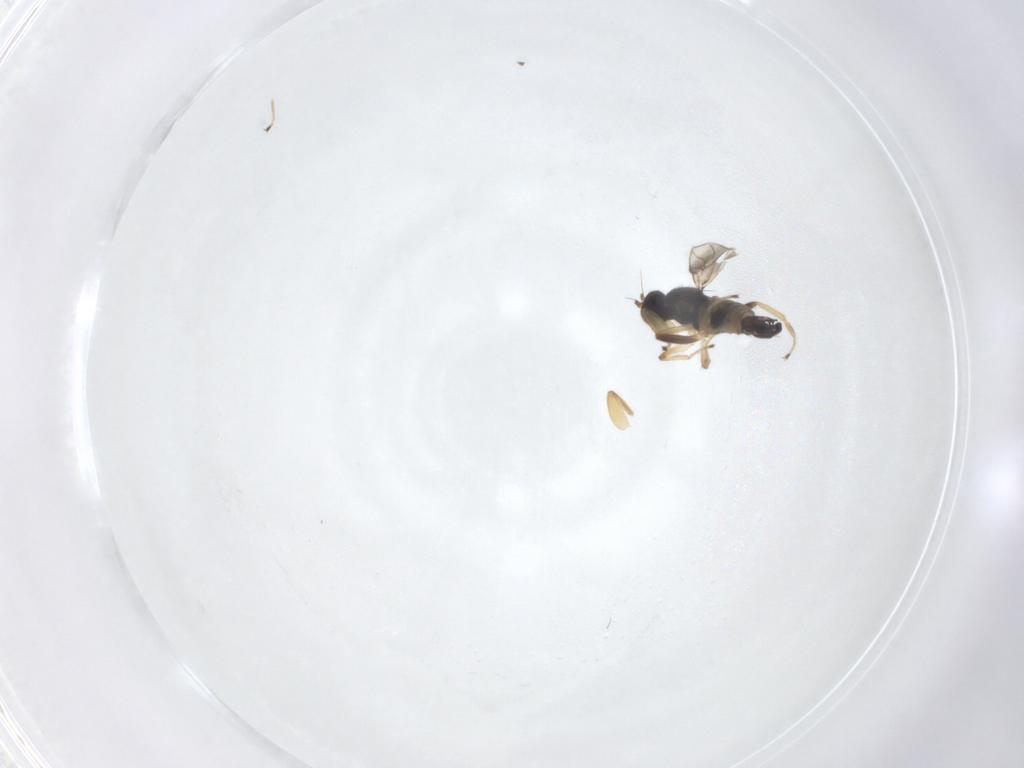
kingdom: Animalia
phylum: Arthropoda
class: Insecta
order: Diptera
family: Hybotidae
